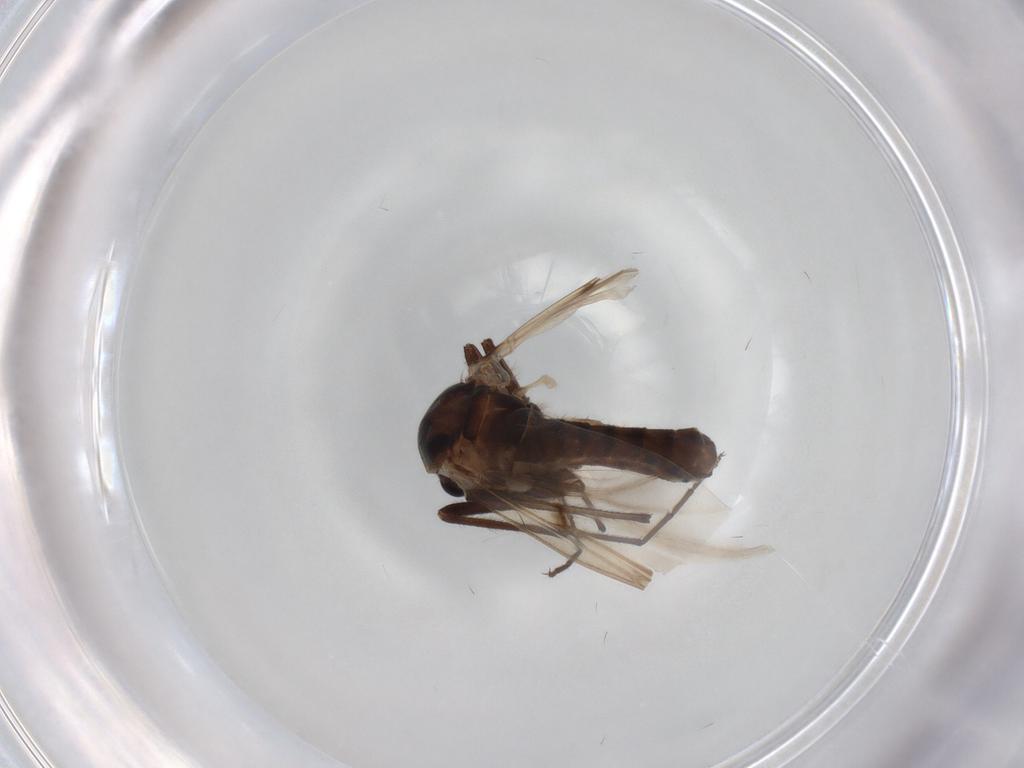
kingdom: Animalia
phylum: Arthropoda
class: Insecta
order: Diptera
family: Chironomidae
